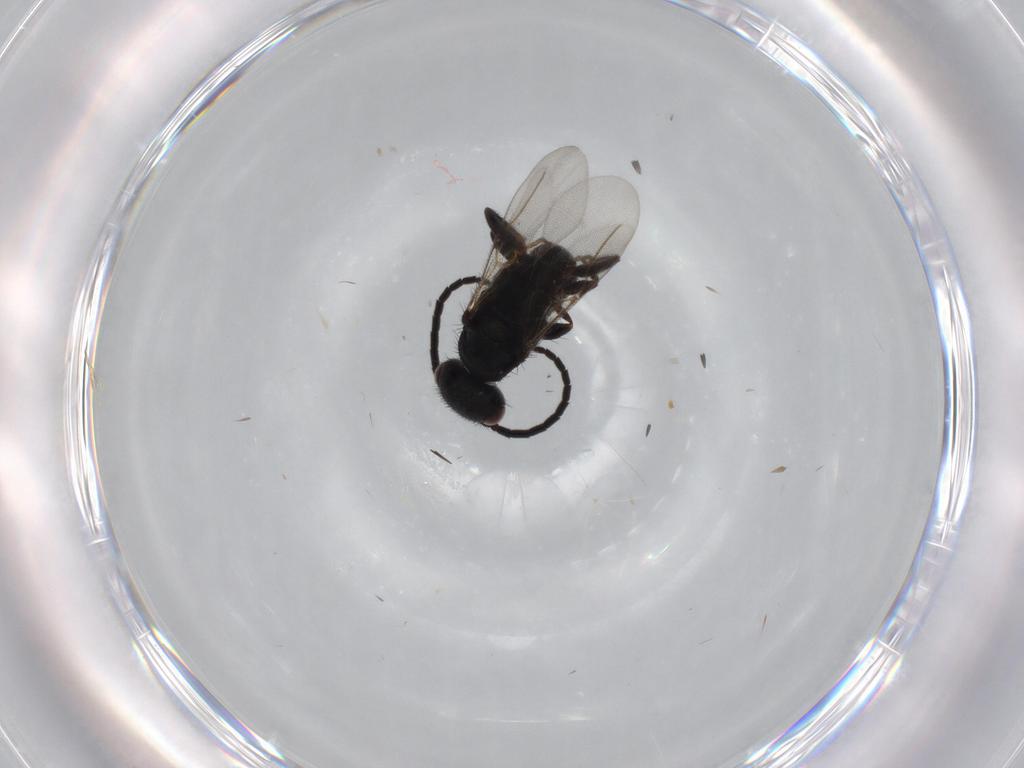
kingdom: Animalia
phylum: Arthropoda
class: Insecta
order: Hymenoptera
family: Bethylidae
